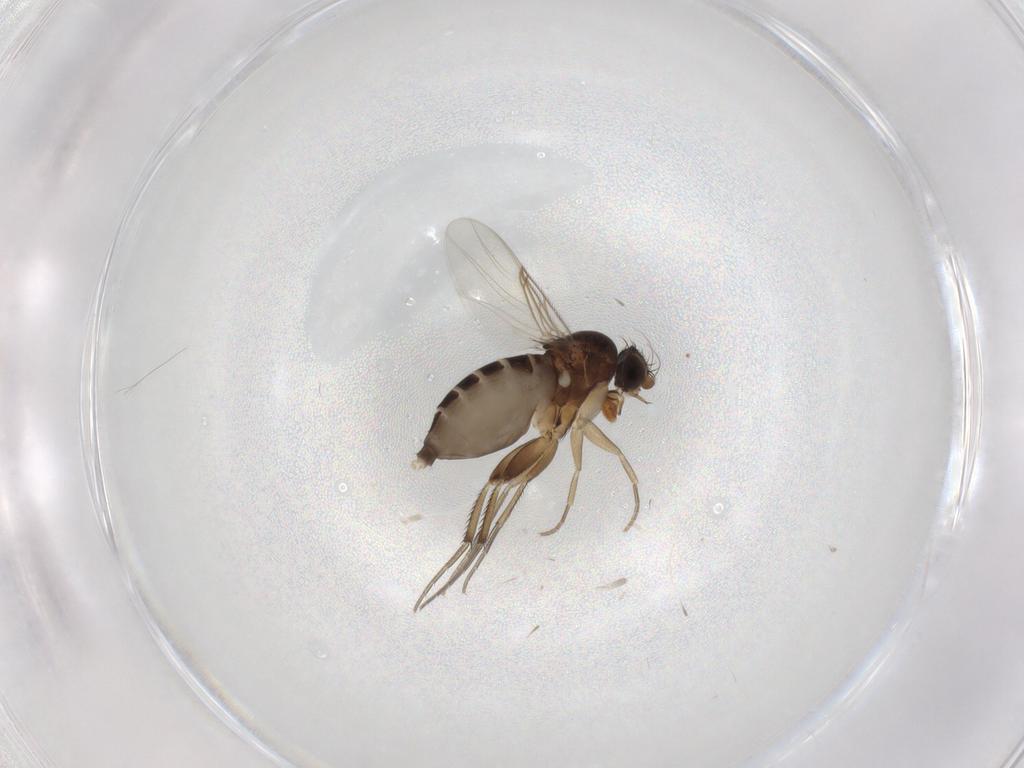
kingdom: Animalia
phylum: Arthropoda
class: Insecta
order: Diptera
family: Phoridae
